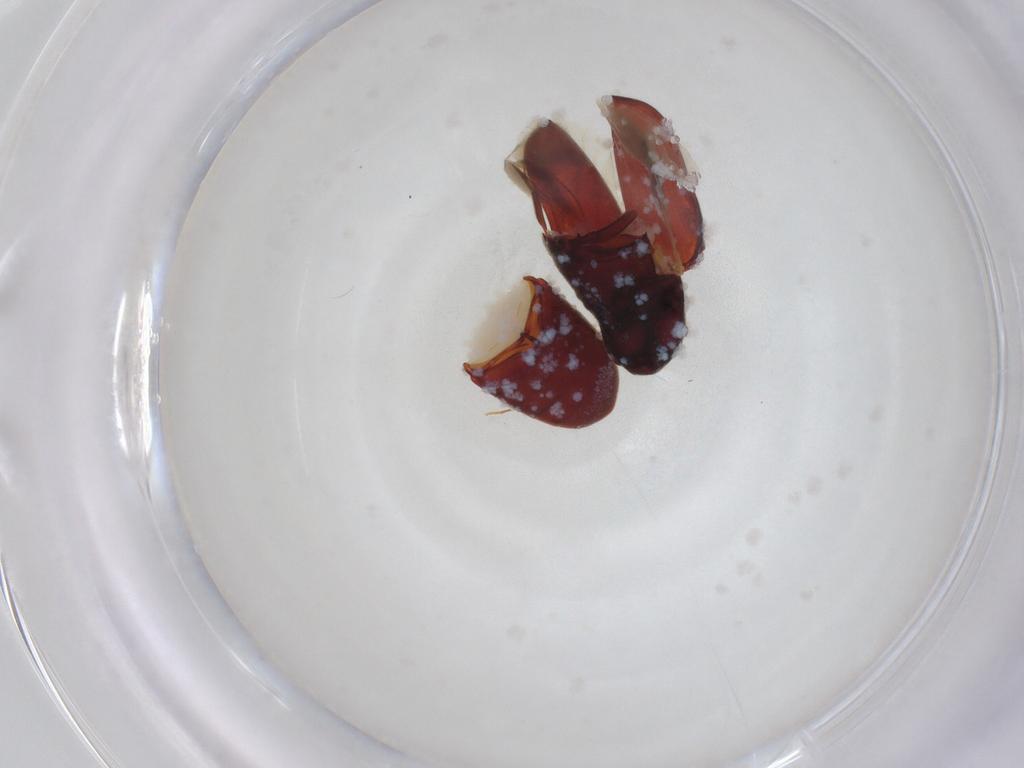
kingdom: Animalia
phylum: Arthropoda
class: Insecta
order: Coleoptera
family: Throscidae
